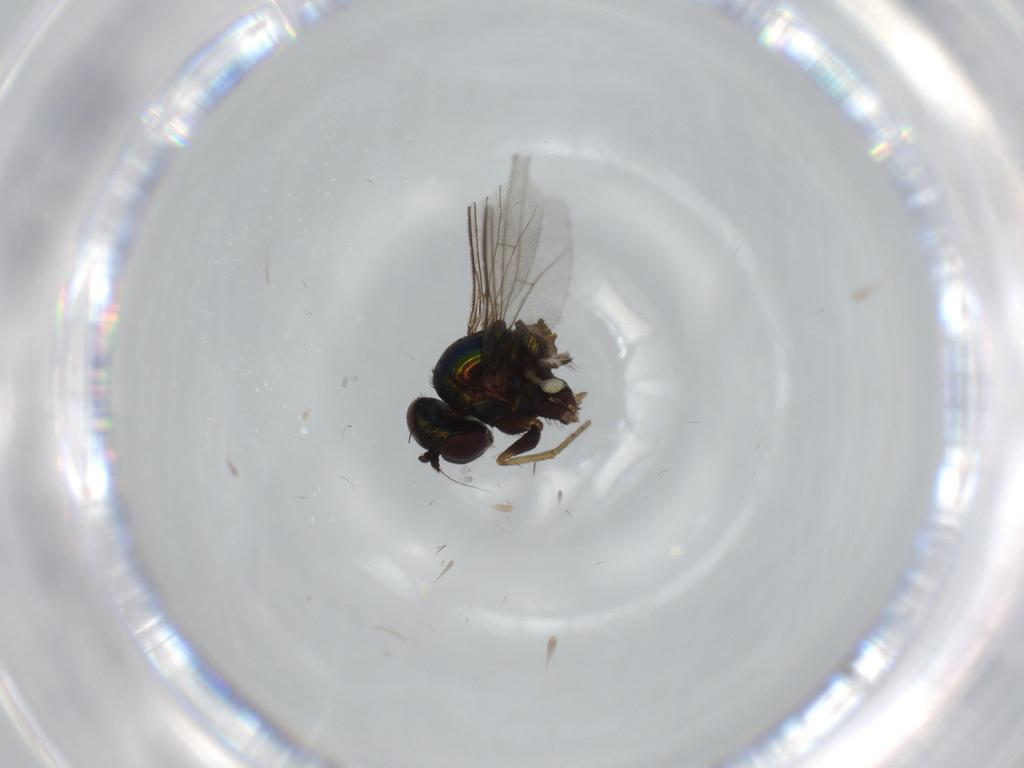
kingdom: Animalia
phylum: Arthropoda
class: Insecta
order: Diptera
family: Sciaridae
